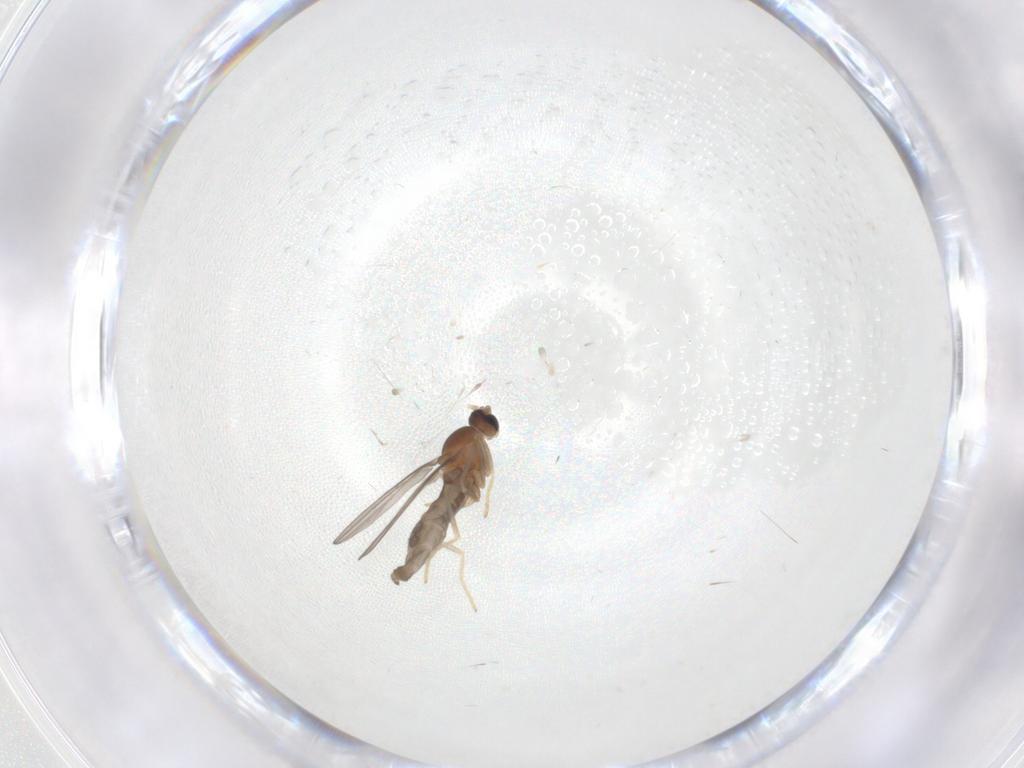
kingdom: Animalia
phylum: Arthropoda
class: Insecta
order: Diptera
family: Cecidomyiidae
